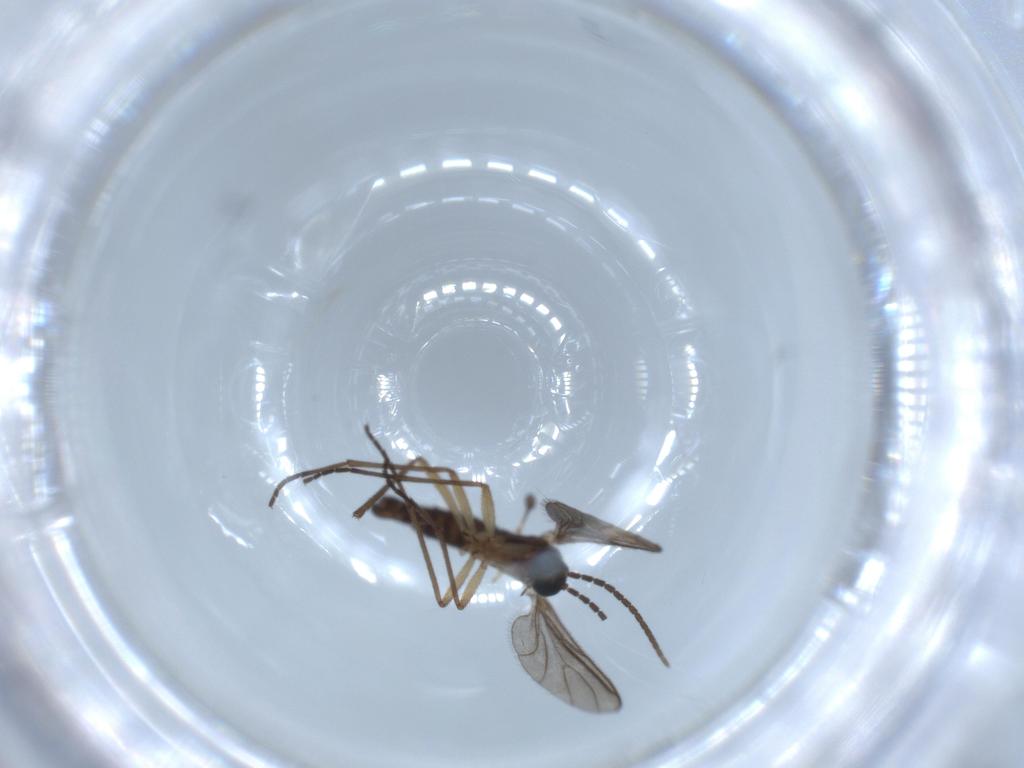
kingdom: Animalia
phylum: Arthropoda
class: Insecta
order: Diptera
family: Sciaridae
